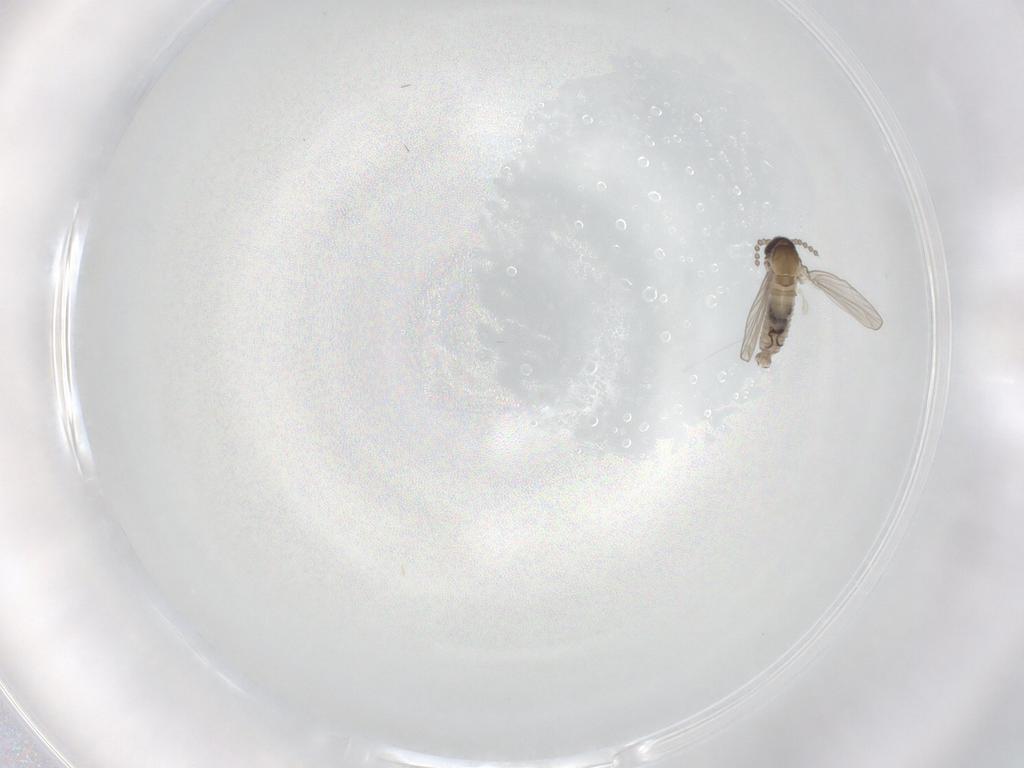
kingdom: Animalia
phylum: Arthropoda
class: Insecta
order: Diptera
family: Psychodidae
